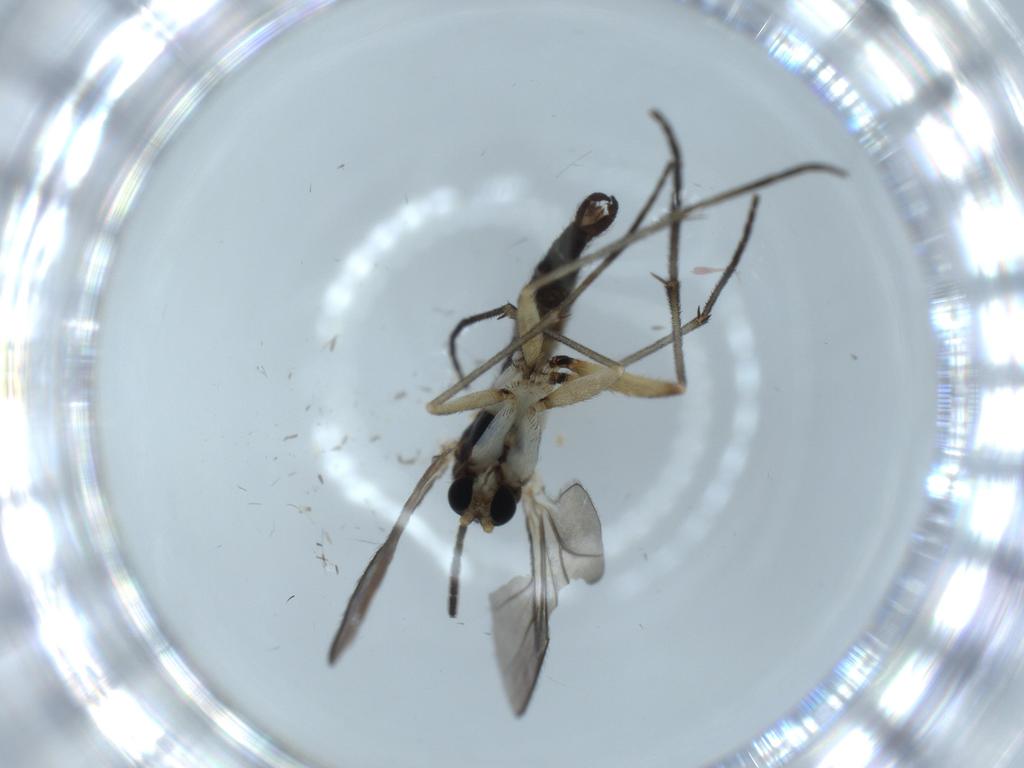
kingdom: Animalia
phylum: Arthropoda
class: Insecta
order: Diptera
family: Sciaridae
